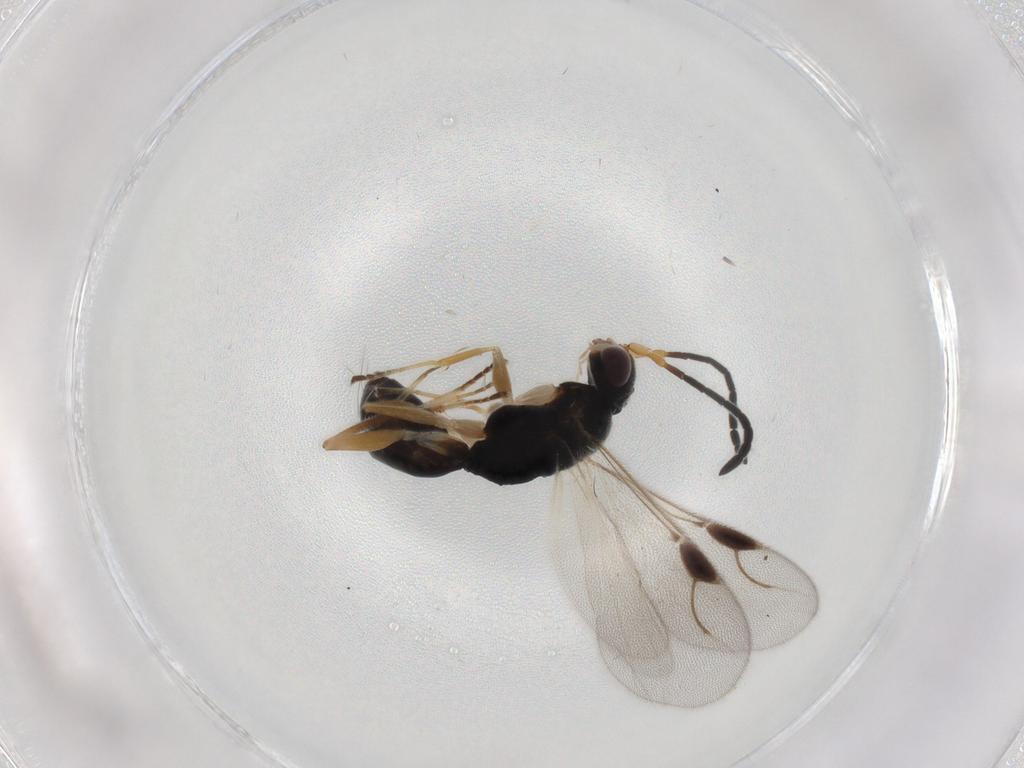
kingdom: Animalia
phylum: Arthropoda
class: Insecta
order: Hymenoptera
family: Dryinidae
